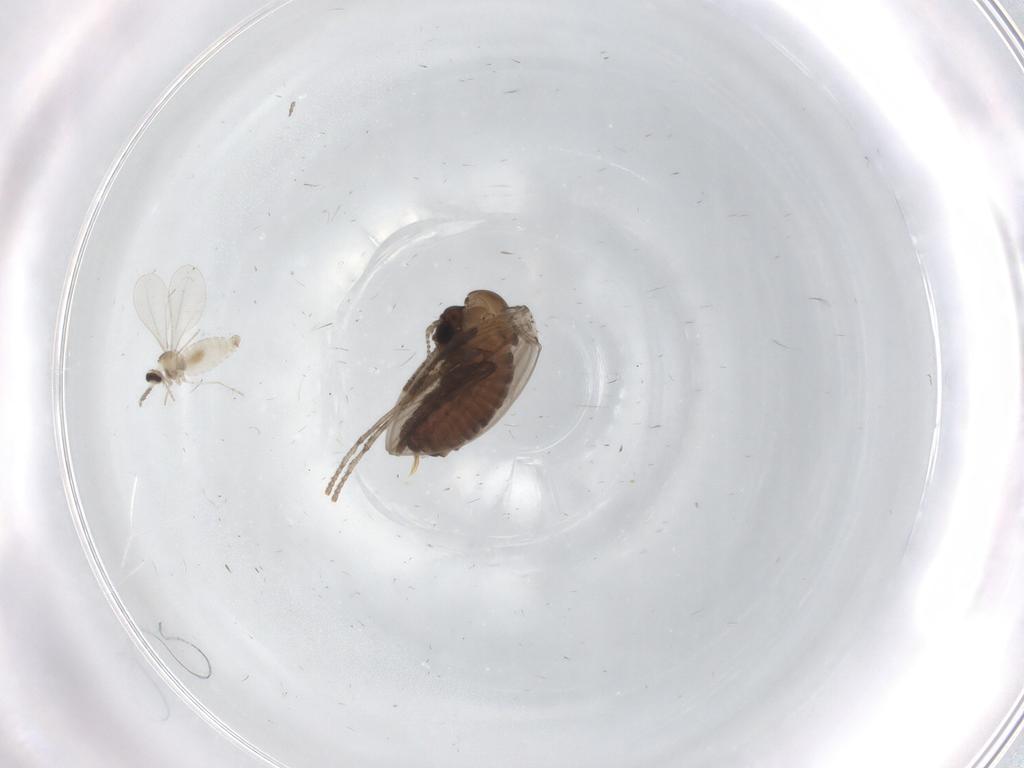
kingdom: Animalia
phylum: Arthropoda
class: Insecta
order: Diptera
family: Psychodidae
